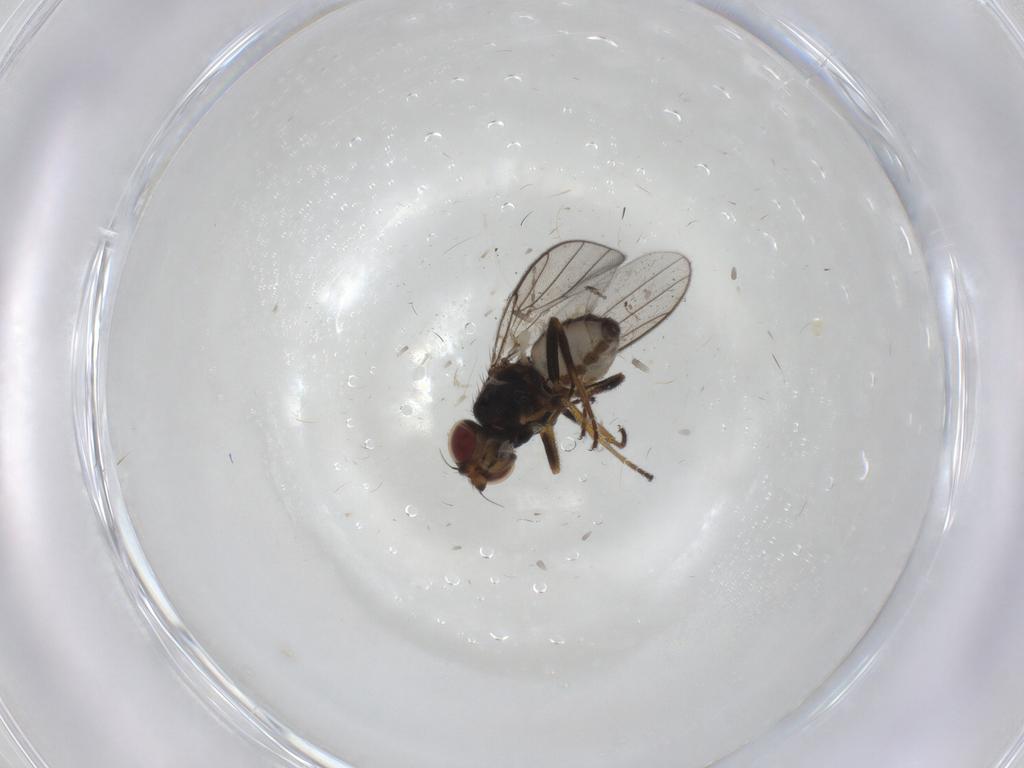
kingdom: Animalia
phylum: Arthropoda
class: Insecta
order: Diptera
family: Chloropidae
